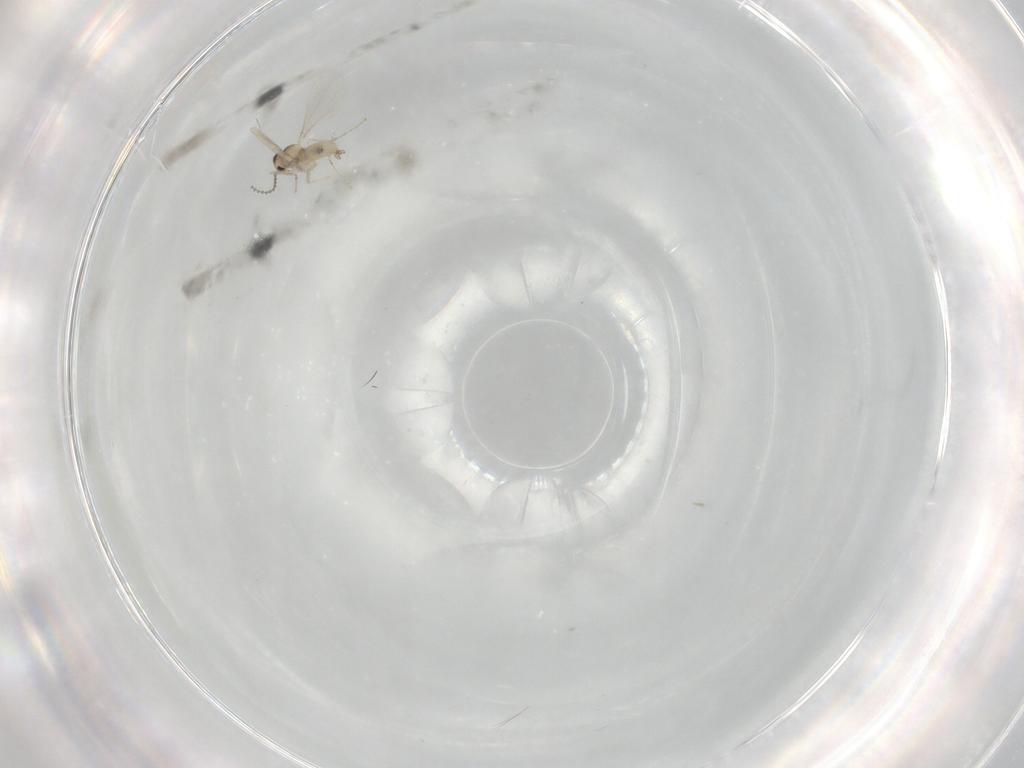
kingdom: Animalia
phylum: Arthropoda
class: Insecta
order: Diptera
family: Cecidomyiidae
